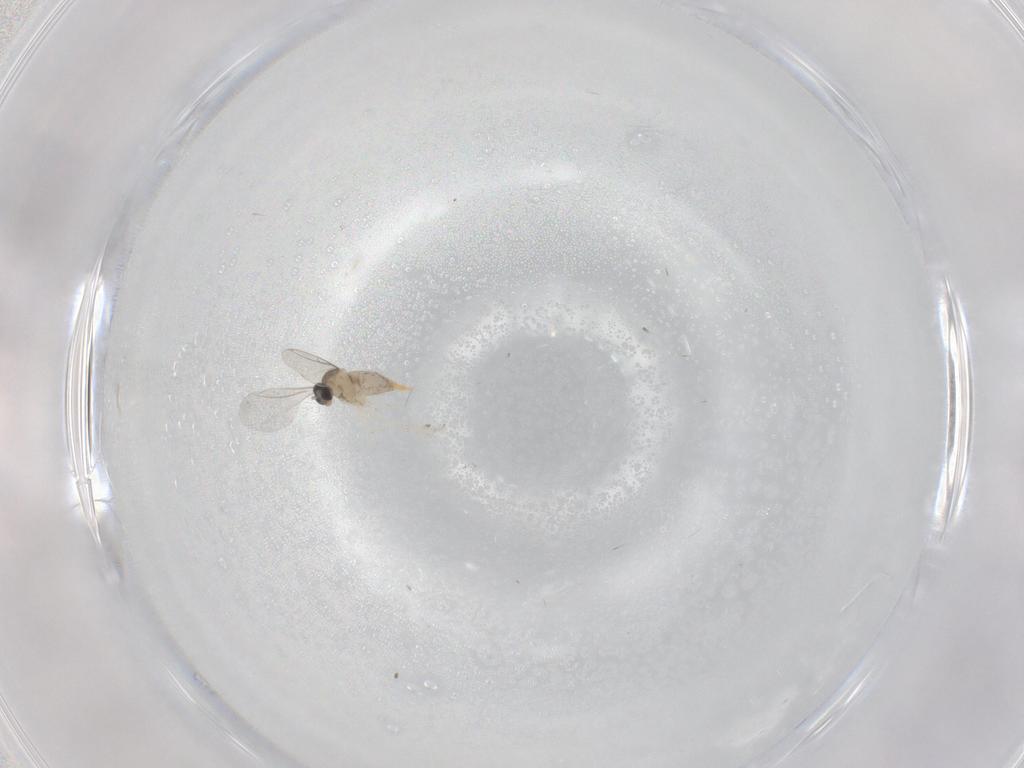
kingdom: Animalia
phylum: Arthropoda
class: Insecta
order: Diptera
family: Cecidomyiidae
